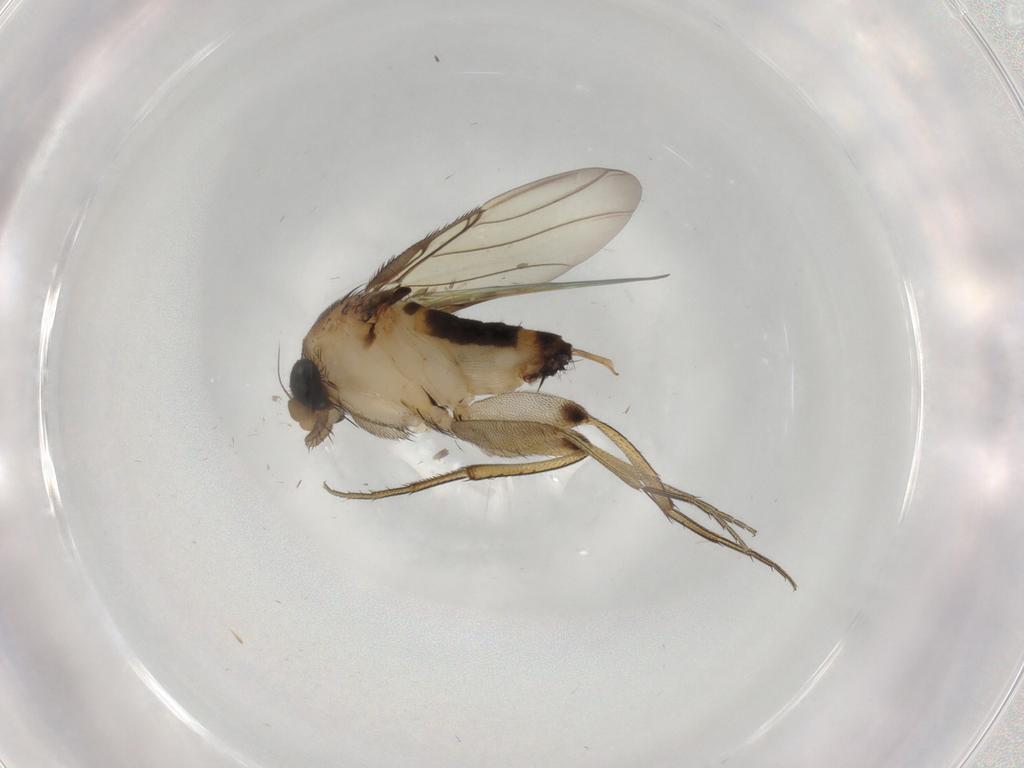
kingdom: Animalia
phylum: Arthropoda
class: Insecta
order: Diptera
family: Phoridae
